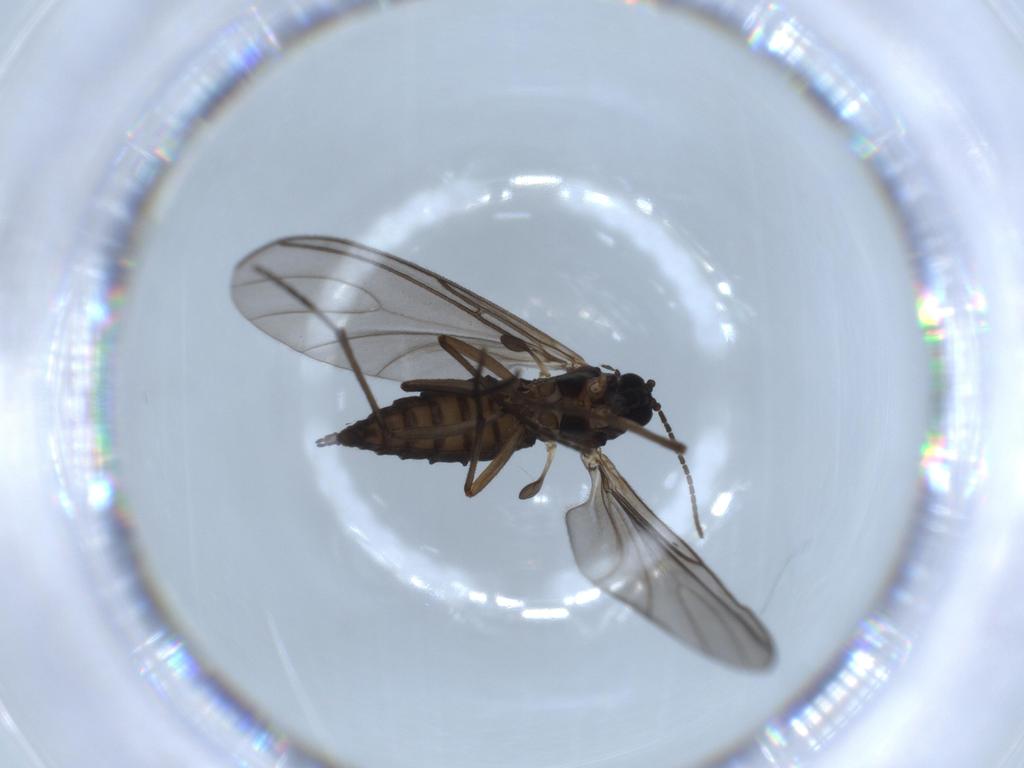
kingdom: Animalia
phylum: Arthropoda
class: Insecta
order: Diptera
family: Sciaridae
